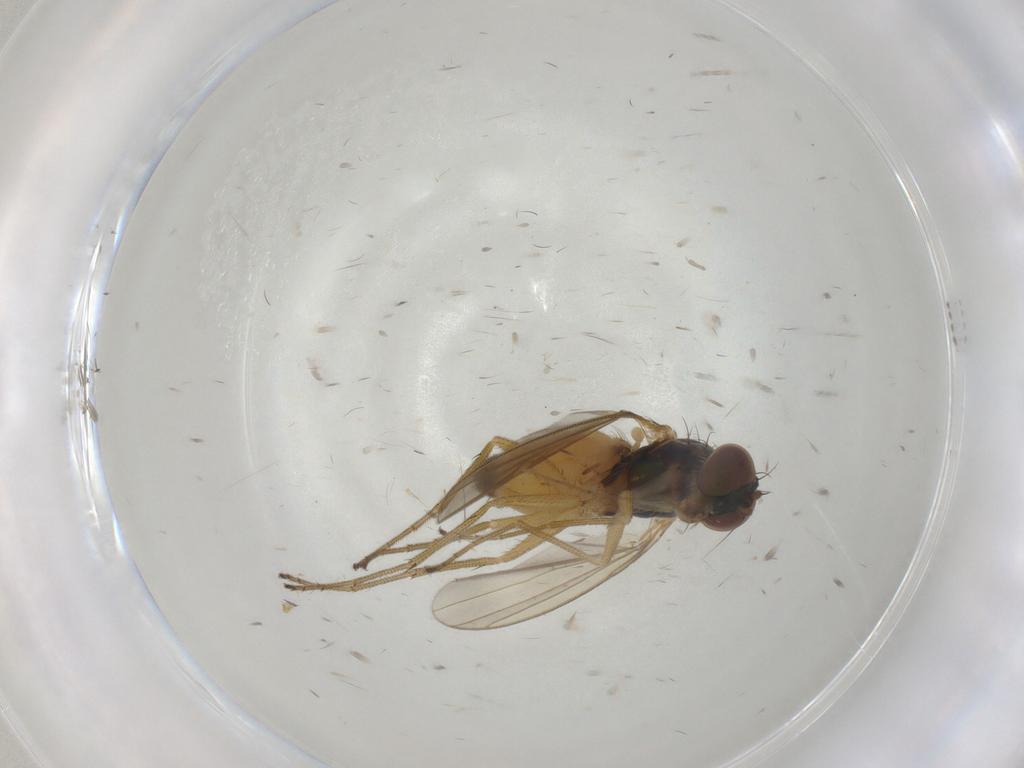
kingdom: Animalia
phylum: Arthropoda
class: Insecta
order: Diptera
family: Dolichopodidae
